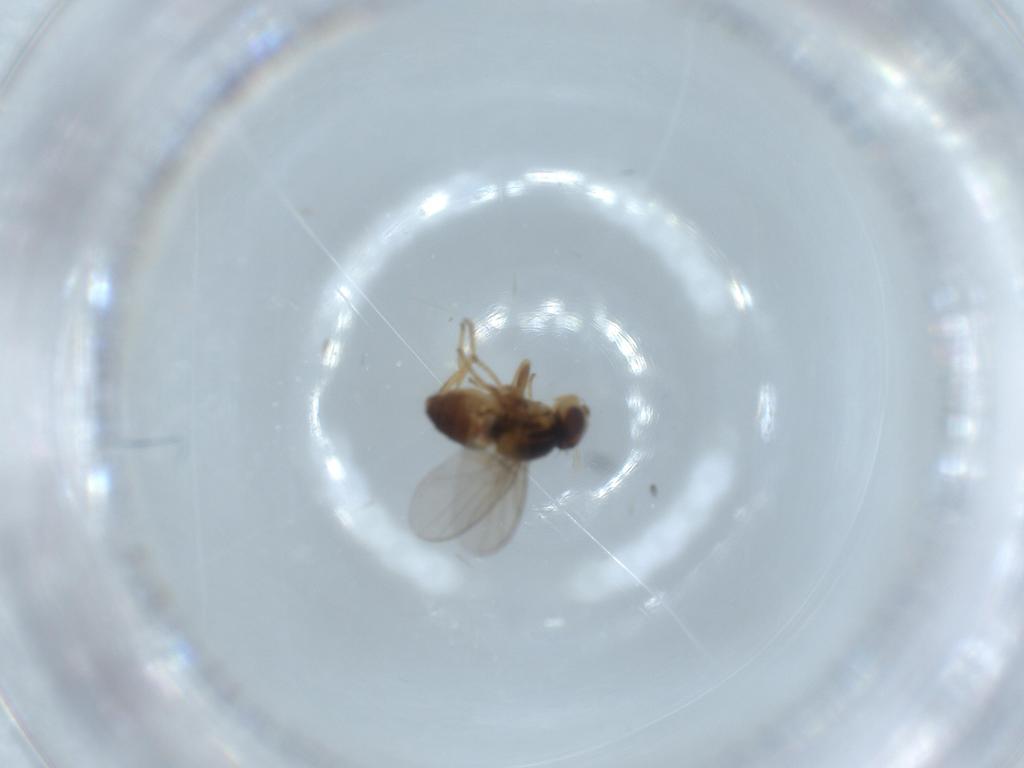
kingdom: Animalia
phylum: Arthropoda
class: Insecta
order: Diptera
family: Chloropidae
